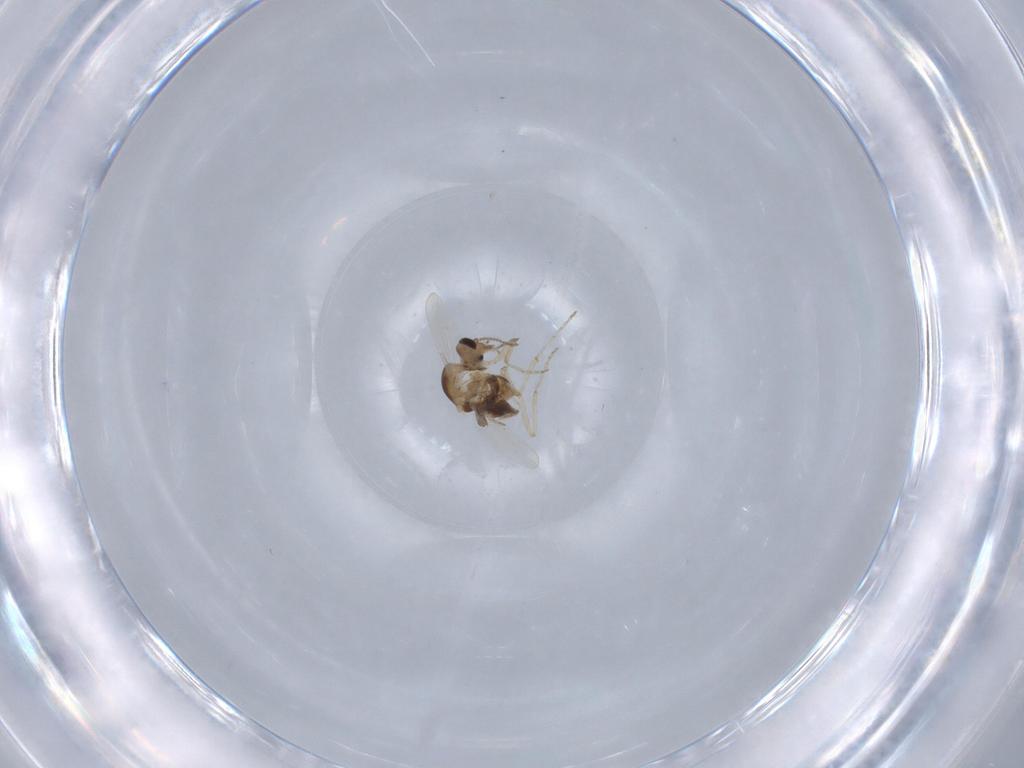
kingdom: Animalia
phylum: Arthropoda
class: Insecta
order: Diptera
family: Ceratopogonidae
